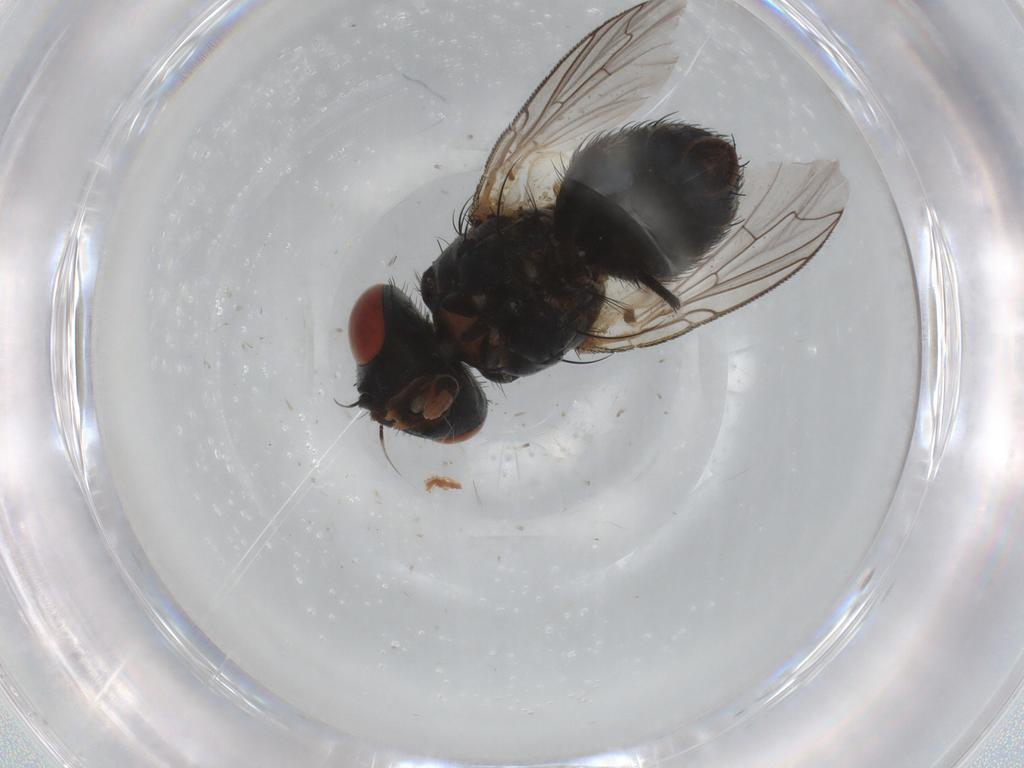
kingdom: Animalia
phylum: Arthropoda
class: Insecta
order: Diptera
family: Sarcophagidae
